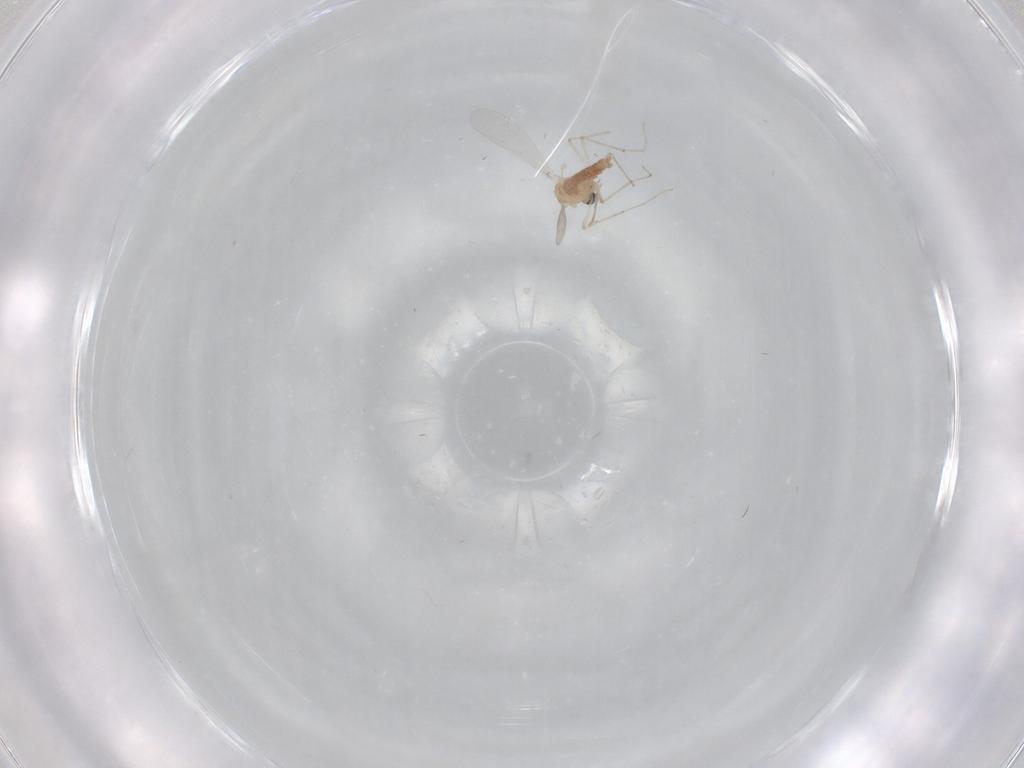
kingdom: Animalia
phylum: Arthropoda
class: Insecta
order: Diptera
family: Chironomidae
